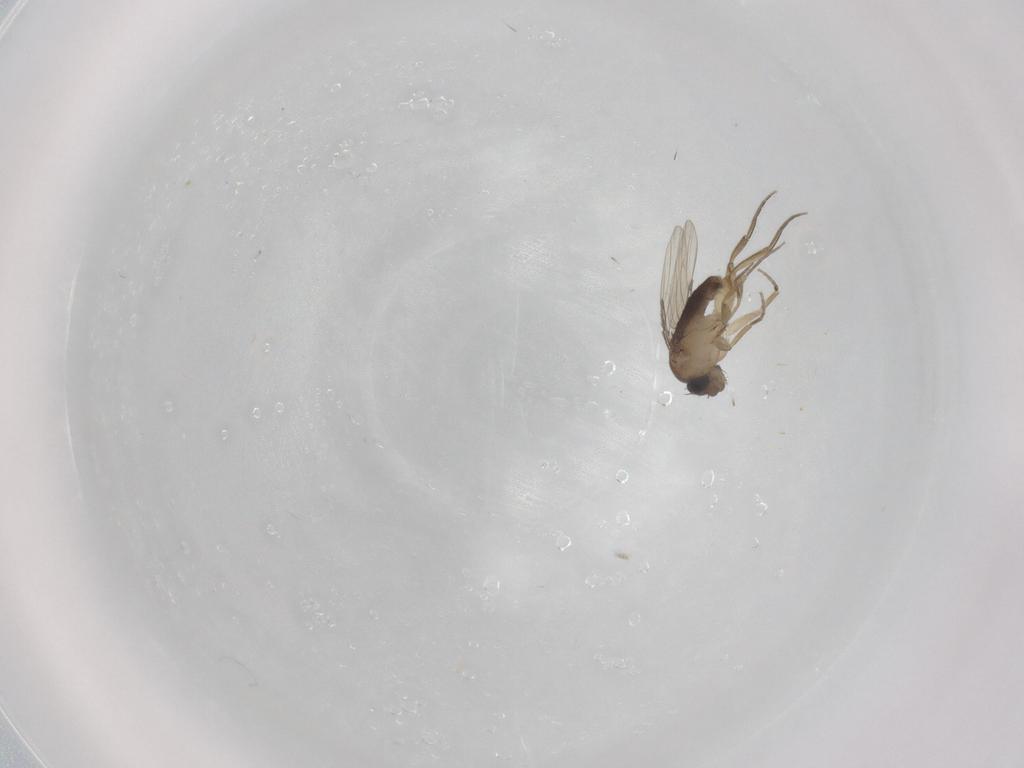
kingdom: Animalia
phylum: Arthropoda
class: Insecta
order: Diptera
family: Phoridae
